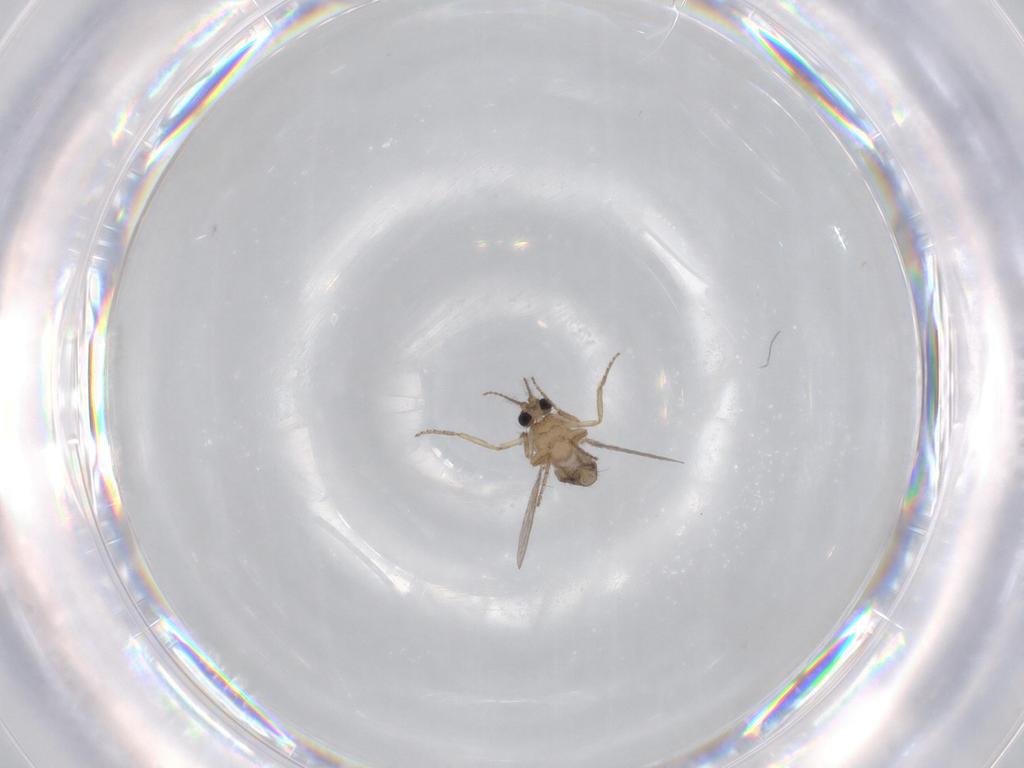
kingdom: Animalia
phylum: Arthropoda
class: Insecta
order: Diptera
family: Ceratopogonidae
